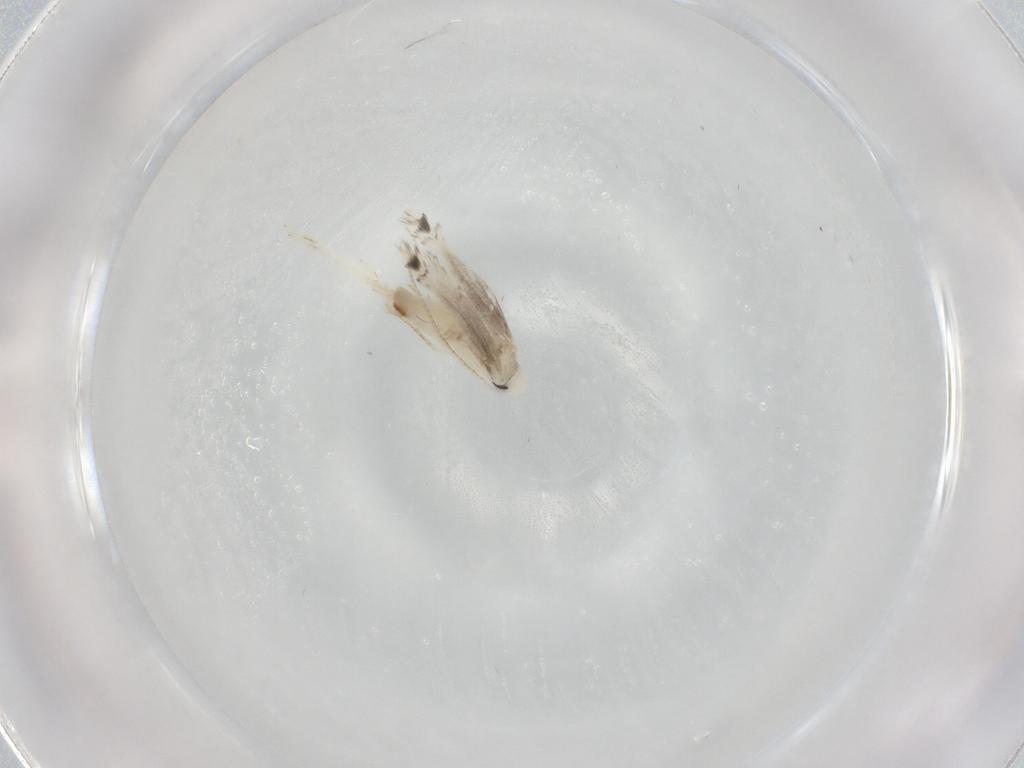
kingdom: Animalia
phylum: Arthropoda
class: Insecta
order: Lepidoptera
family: Gracillariidae
